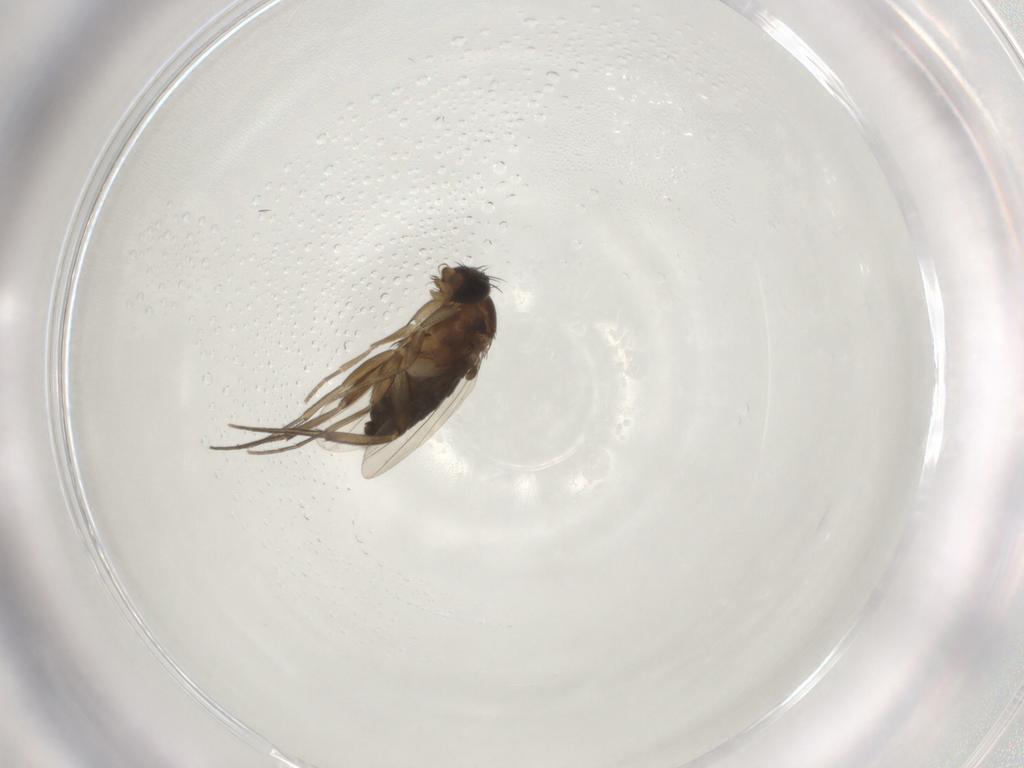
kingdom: Animalia
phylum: Arthropoda
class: Insecta
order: Diptera
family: Phoridae
